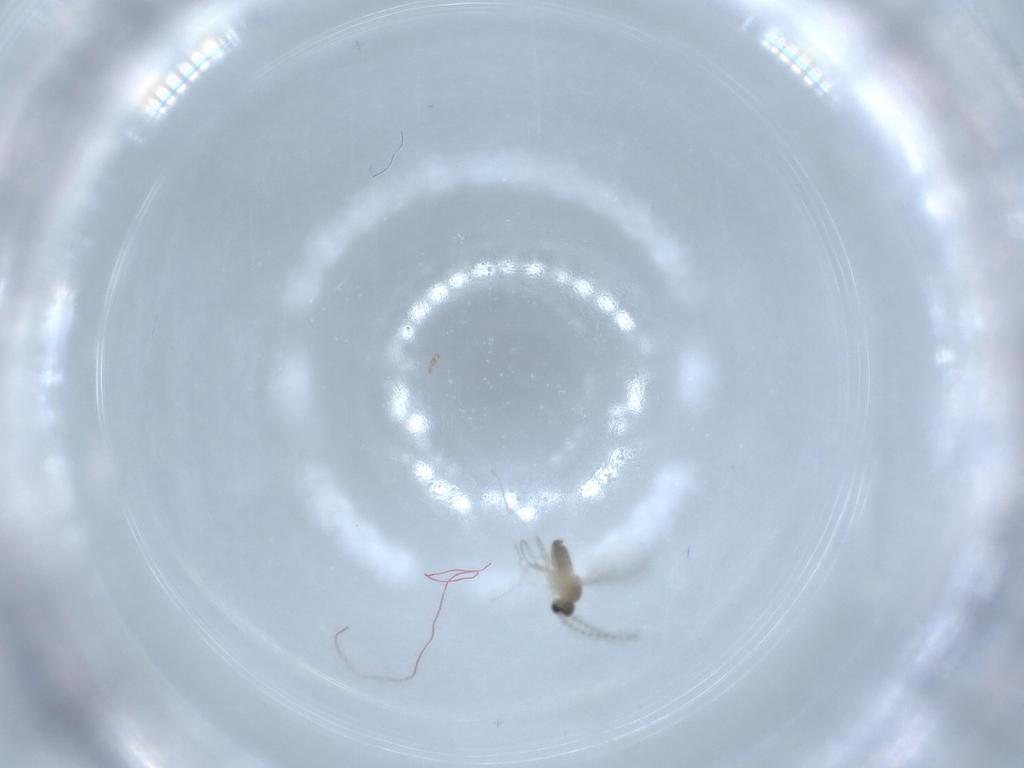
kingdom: Animalia
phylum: Arthropoda
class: Insecta
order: Diptera
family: Cecidomyiidae
